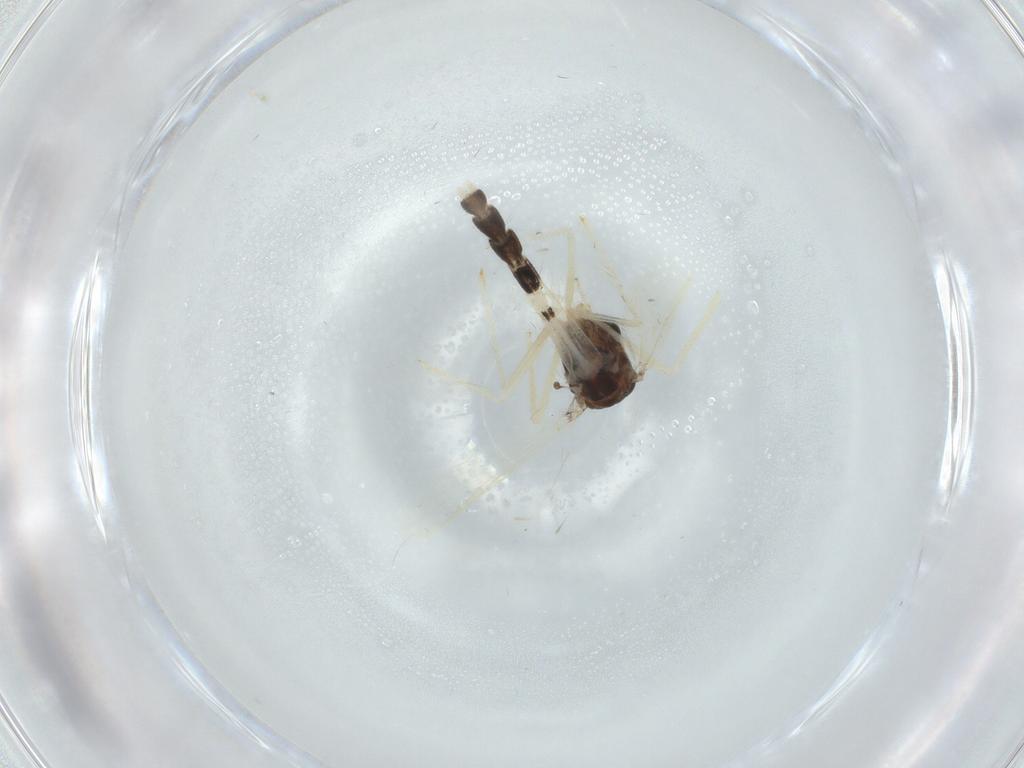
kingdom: Animalia
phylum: Arthropoda
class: Insecta
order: Diptera
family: Chironomidae
